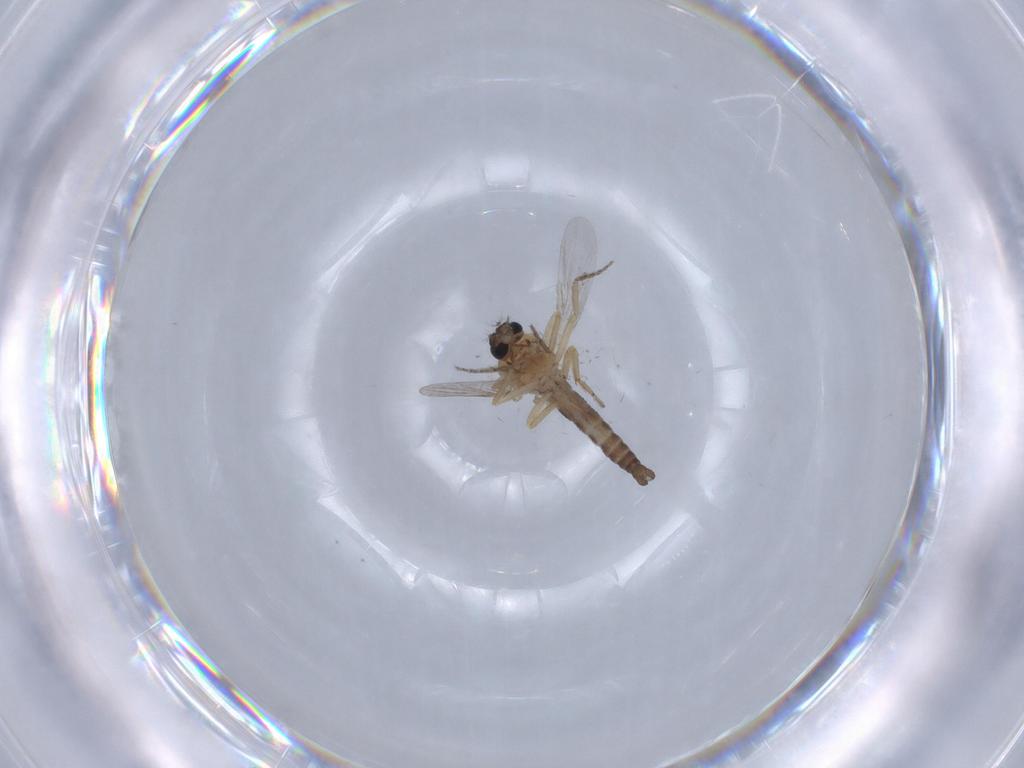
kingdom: Animalia
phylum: Arthropoda
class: Insecta
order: Diptera
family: Ceratopogonidae
